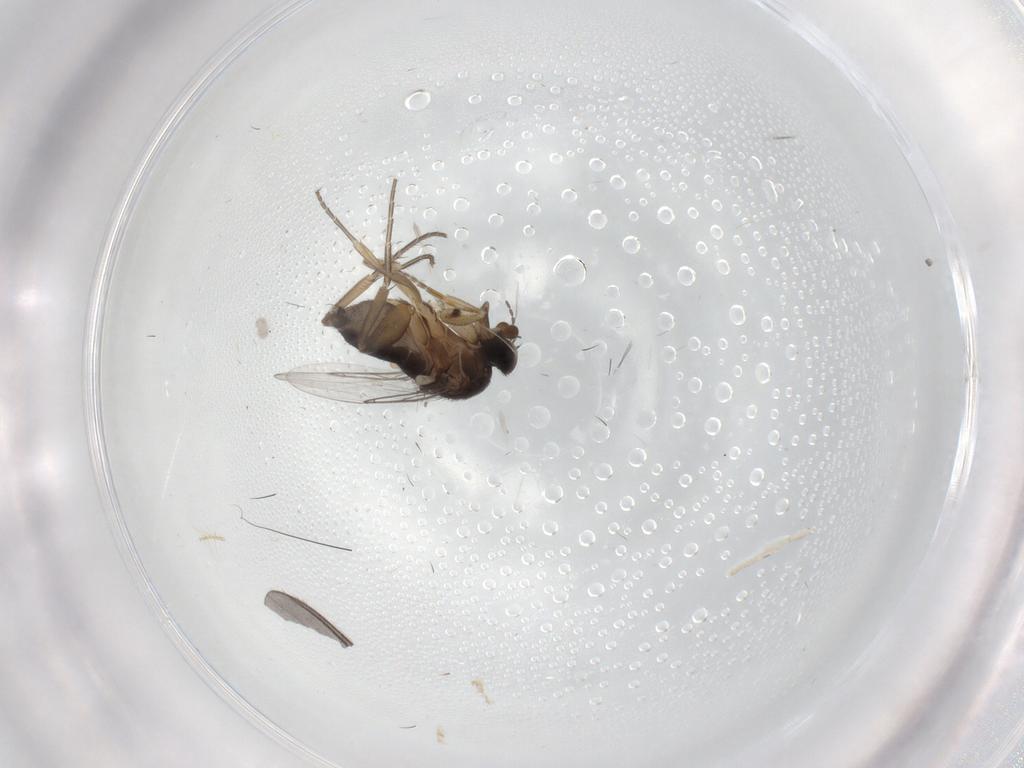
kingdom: Animalia
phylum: Arthropoda
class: Insecta
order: Diptera
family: Phoridae
